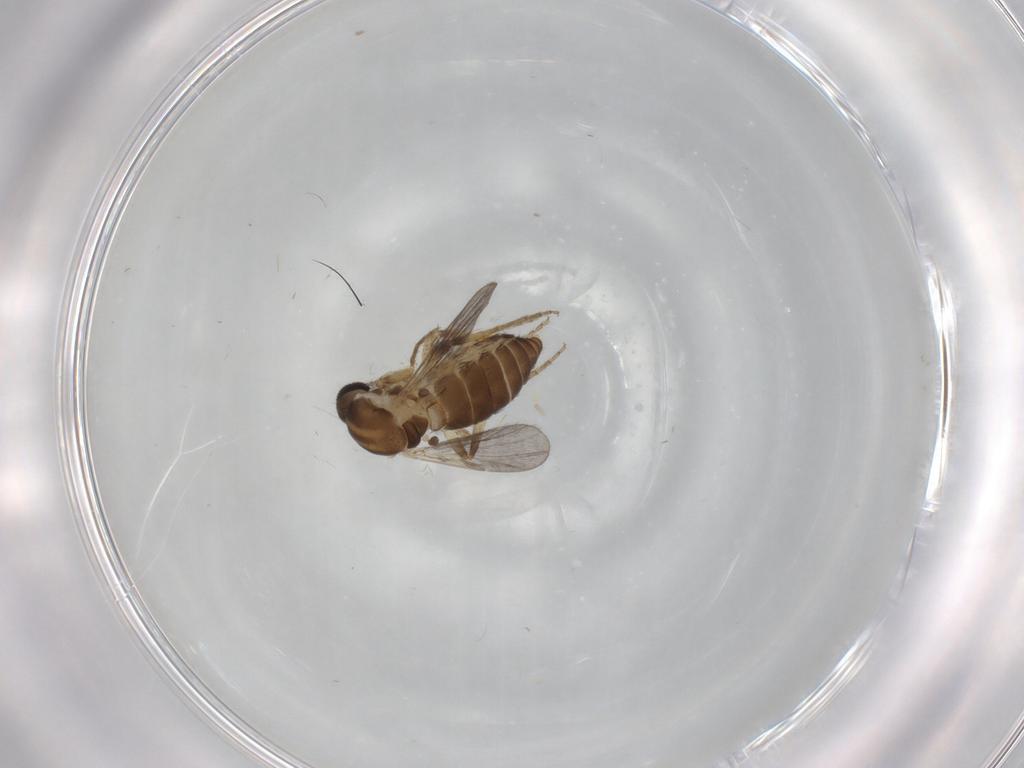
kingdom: Animalia
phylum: Arthropoda
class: Insecta
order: Diptera
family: Ceratopogonidae
